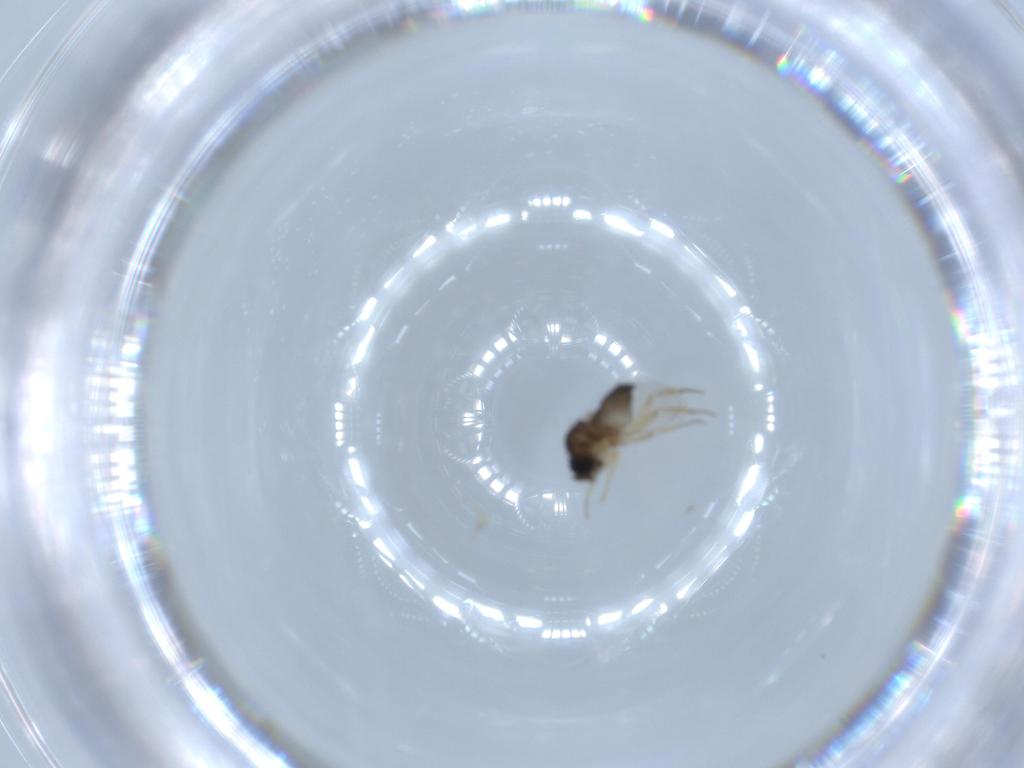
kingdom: Animalia
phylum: Arthropoda
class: Insecta
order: Diptera
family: Phoridae
